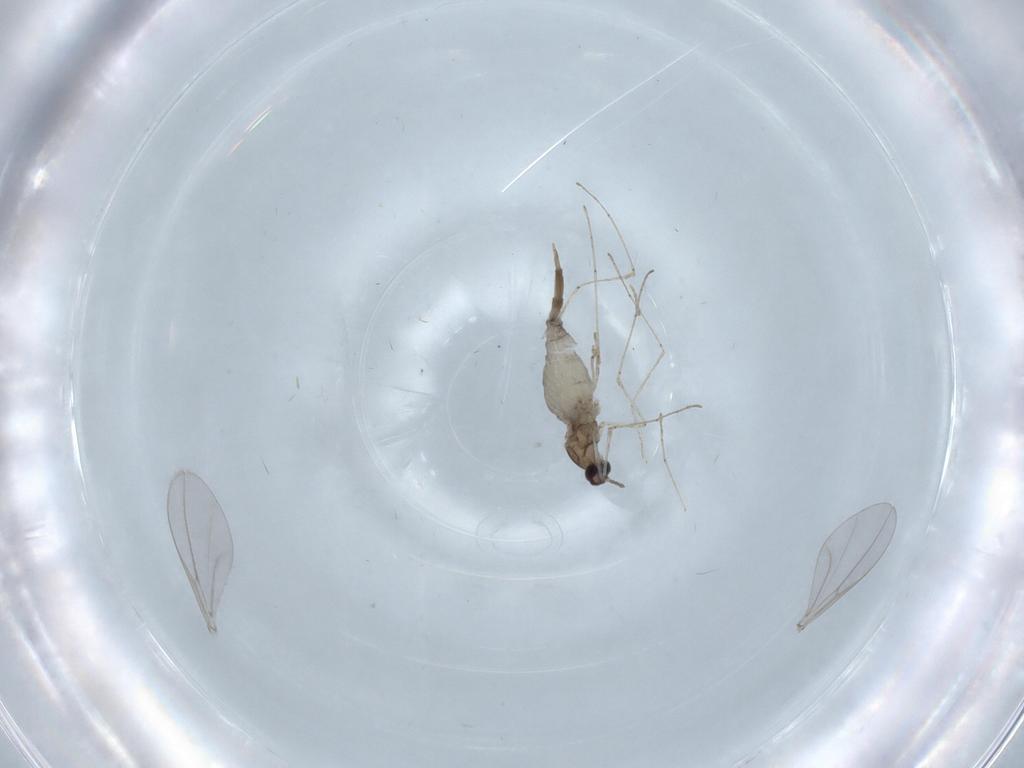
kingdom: Animalia
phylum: Arthropoda
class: Insecta
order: Diptera
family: Cecidomyiidae
